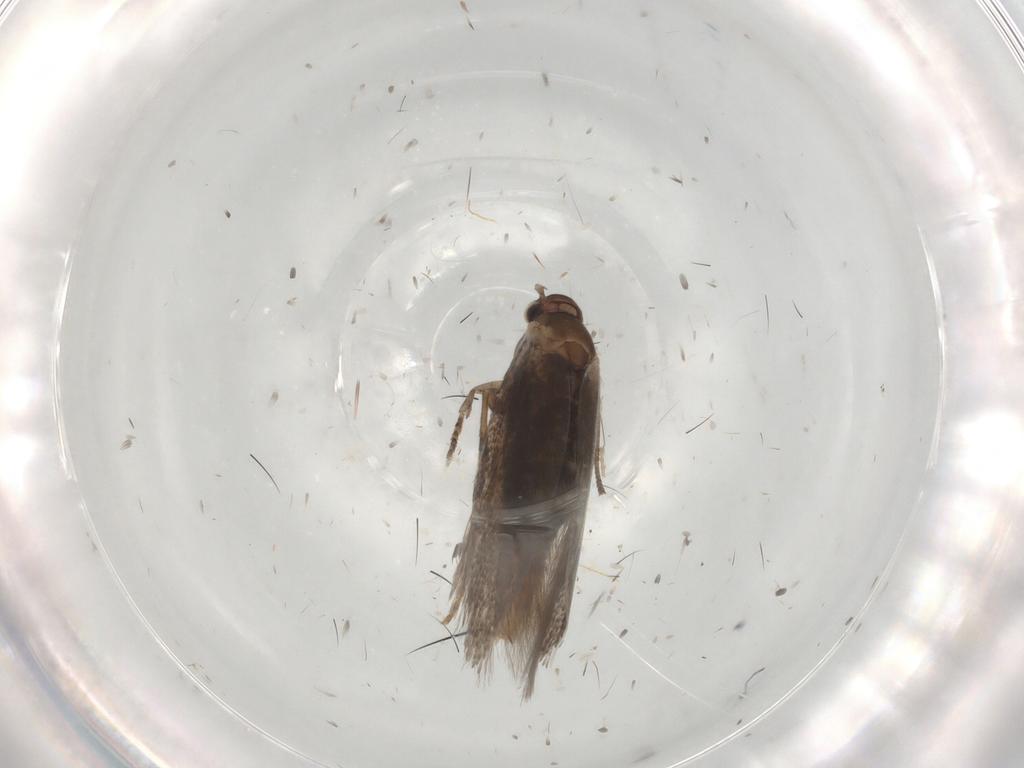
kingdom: Animalia
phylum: Arthropoda
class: Insecta
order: Lepidoptera
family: Elachistidae
